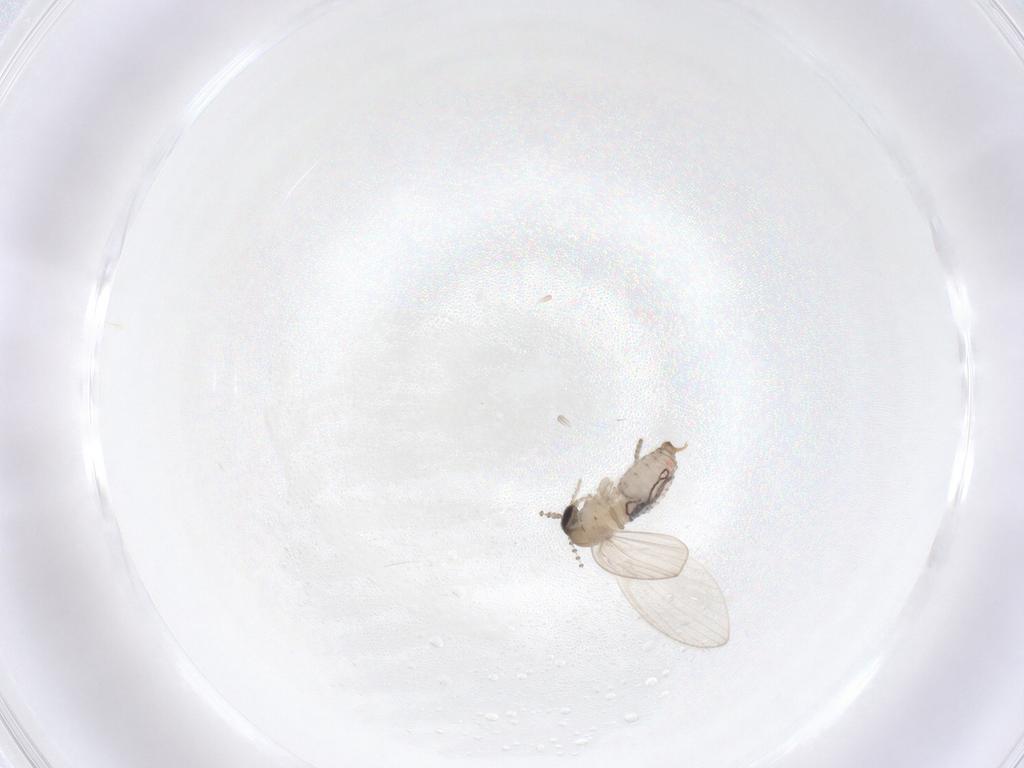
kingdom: Animalia
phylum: Arthropoda
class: Insecta
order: Diptera
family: Psychodidae
